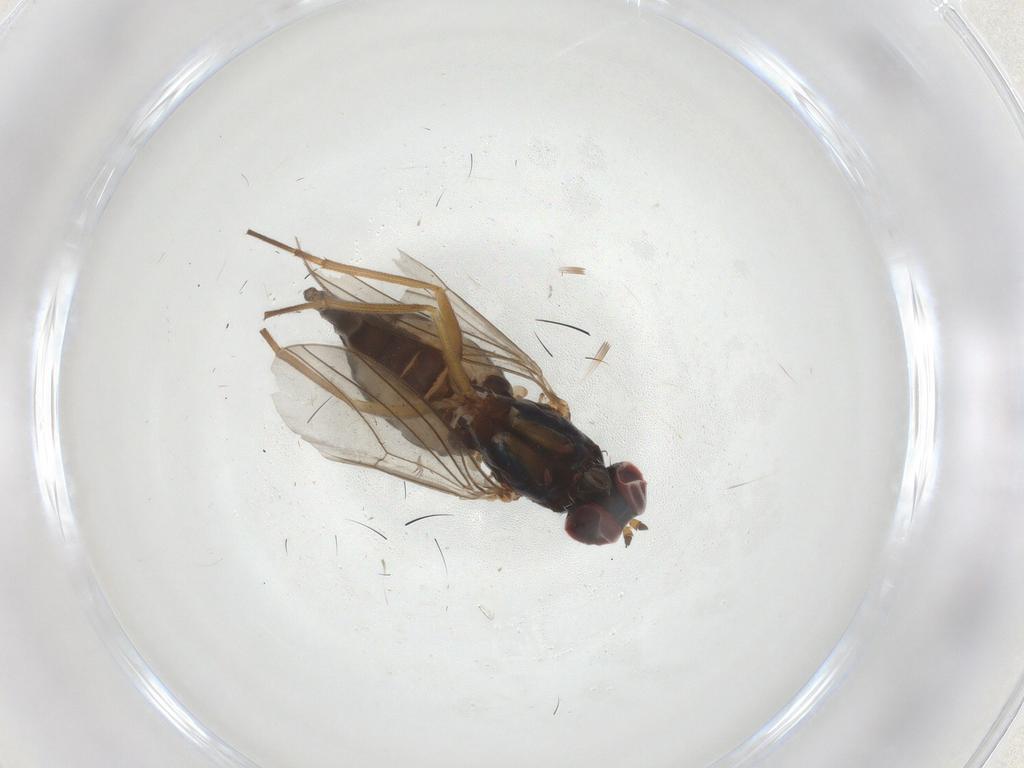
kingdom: Animalia
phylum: Arthropoda
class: Insecta
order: Diptera
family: Dolichopodidae
